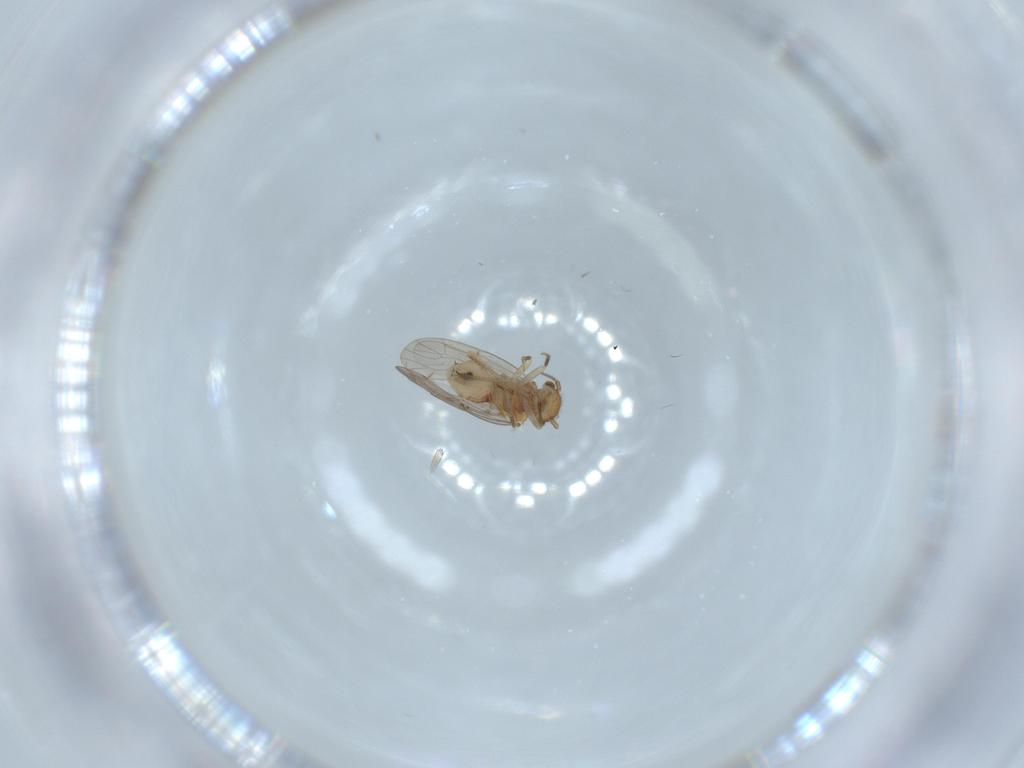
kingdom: Animalia
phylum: Arthropoda
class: Insecta
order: Psocodea
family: Ectopsocidae
